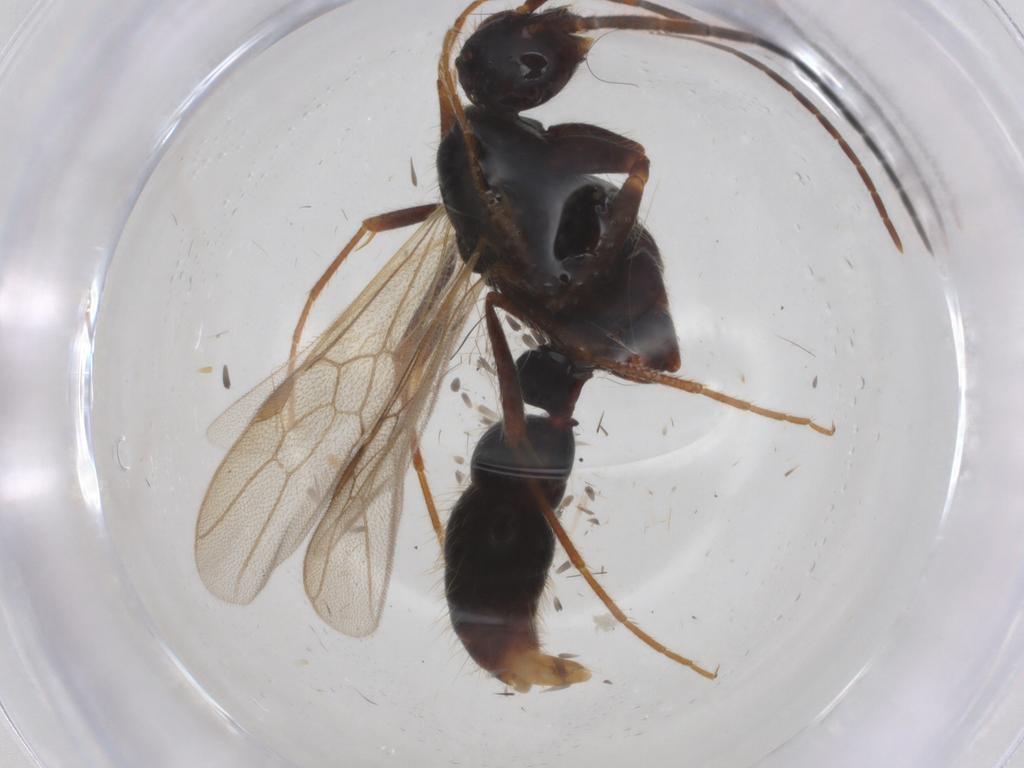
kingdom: Animalia
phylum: Arthropoda
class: Insecta
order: Hymenoptera
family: Formicidae
